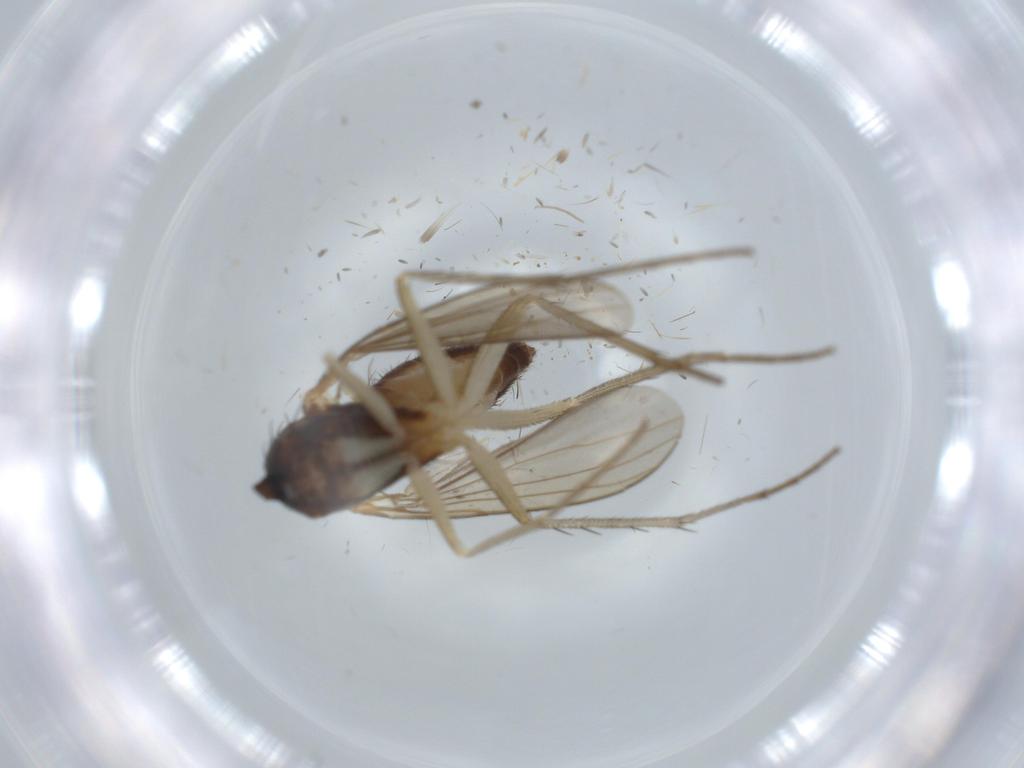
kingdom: Animalia
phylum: Arthropoda
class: Insecta
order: Diptera
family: Dolichopodidae
